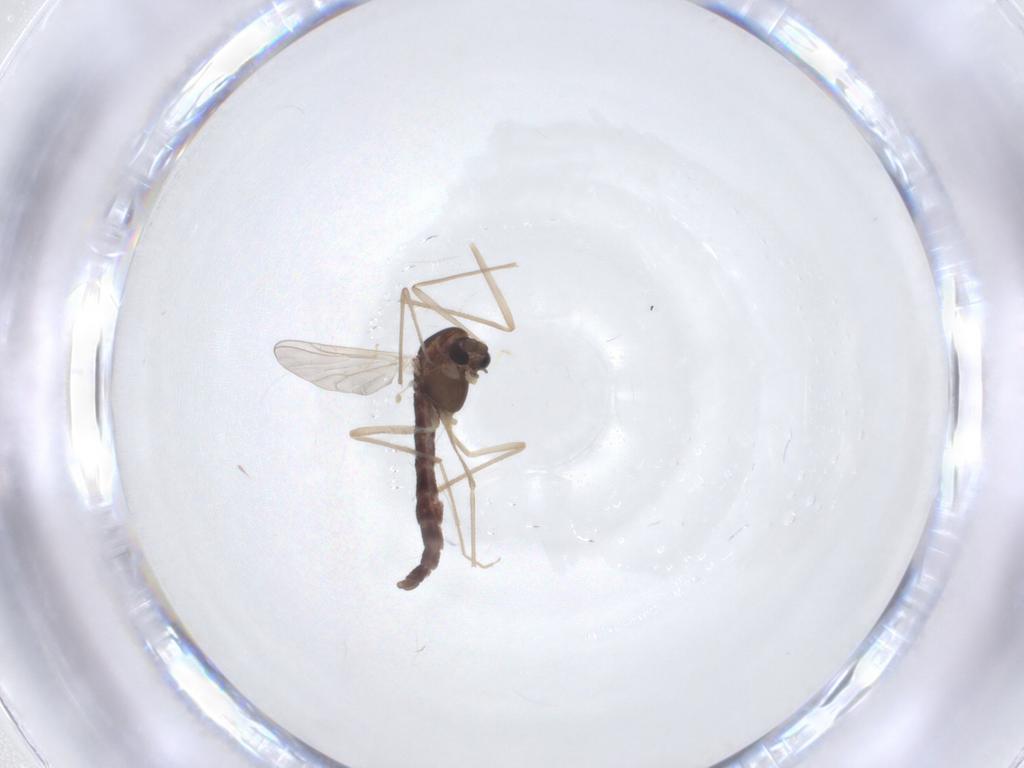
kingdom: Animalia
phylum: Arthropoda
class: Insecta
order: Diptera
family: Chironomidae
